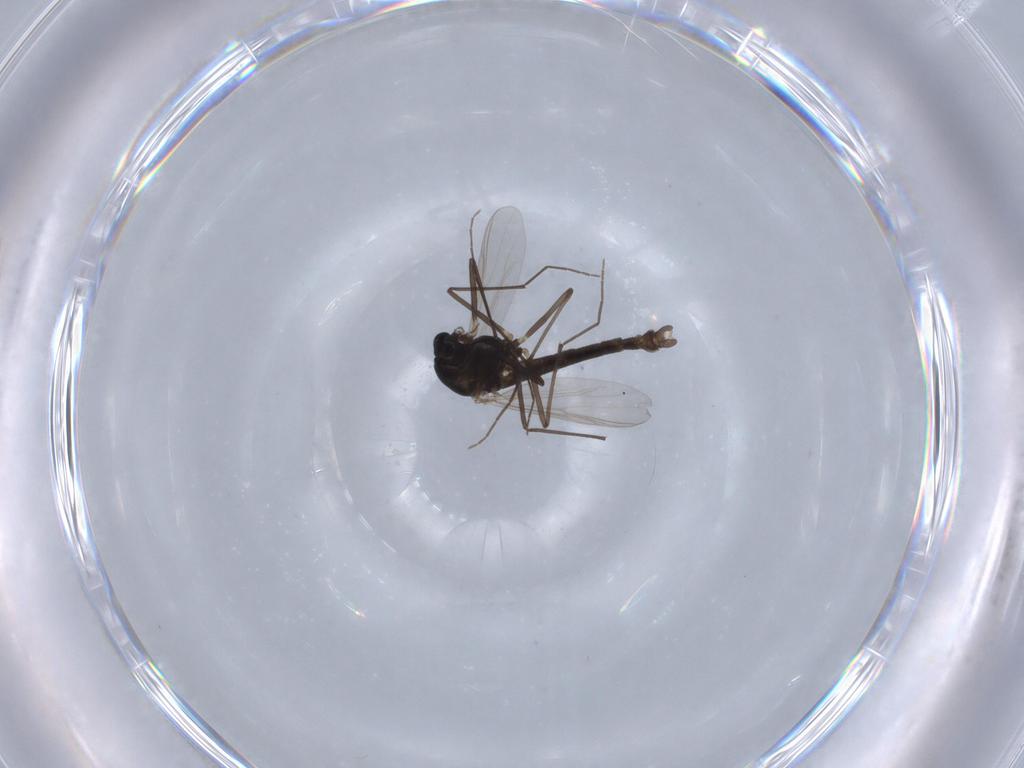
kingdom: Animalia
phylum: Arthropoda
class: Insecta
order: Diptera
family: Chironomidae
